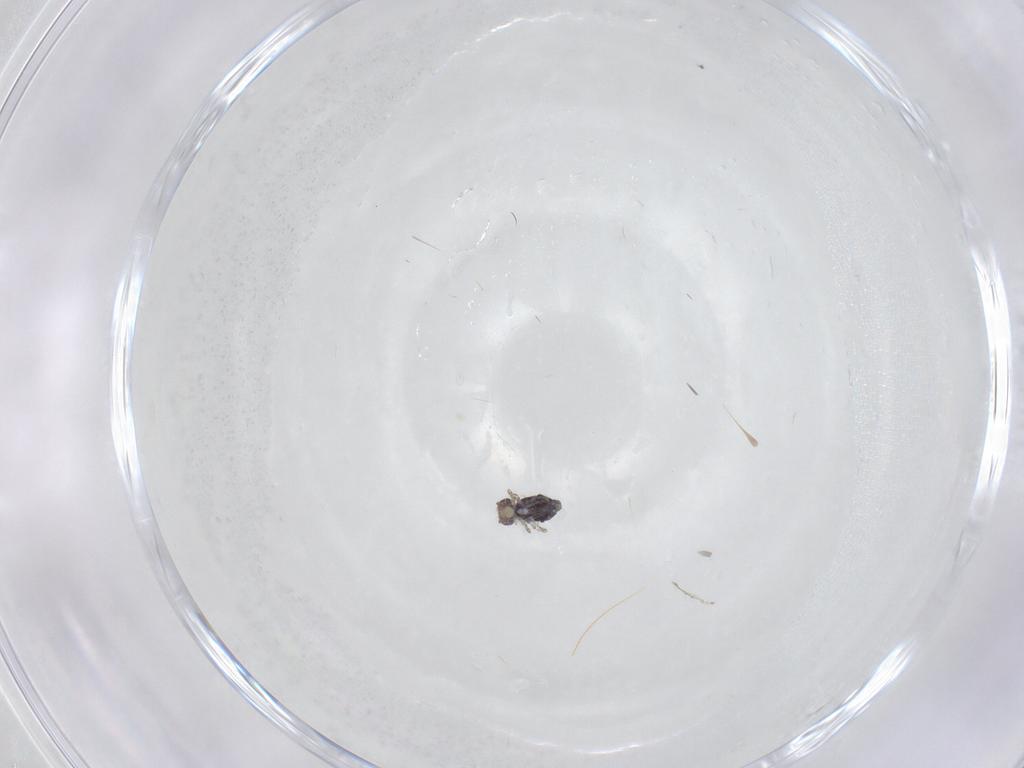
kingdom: Animalia
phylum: Arthropoda
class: Collembola
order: Symphypleona
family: Bourletiellidae
